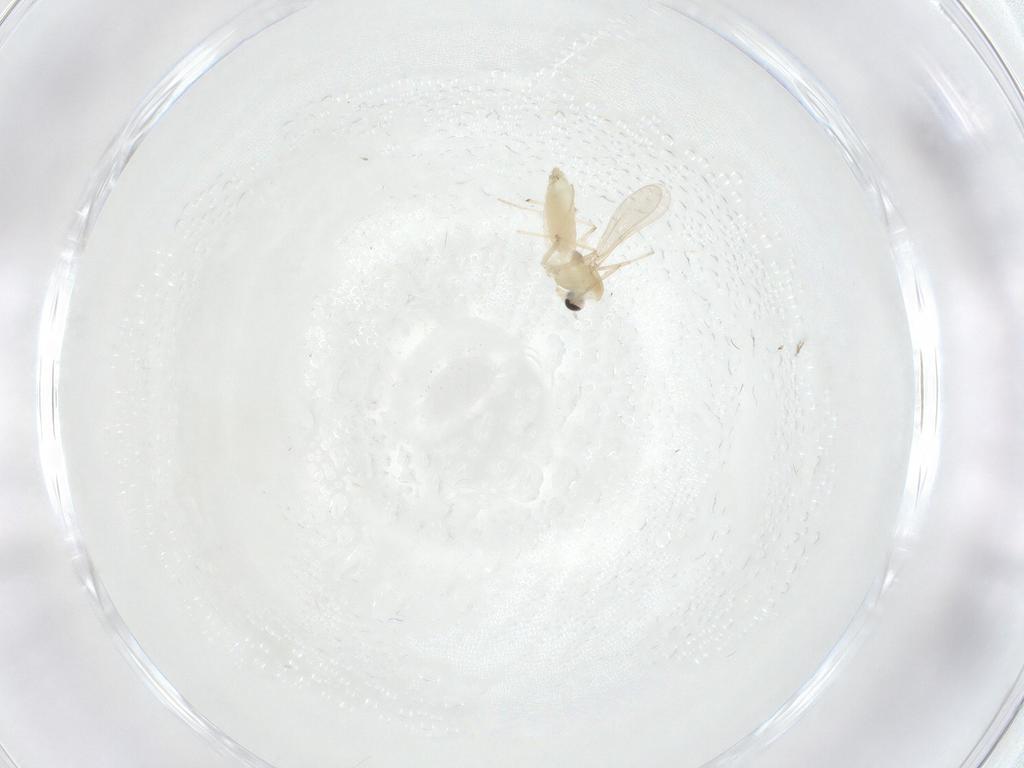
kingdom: Animalia
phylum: Arthropoda
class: Insecta
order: Diptera
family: Chironomidae
